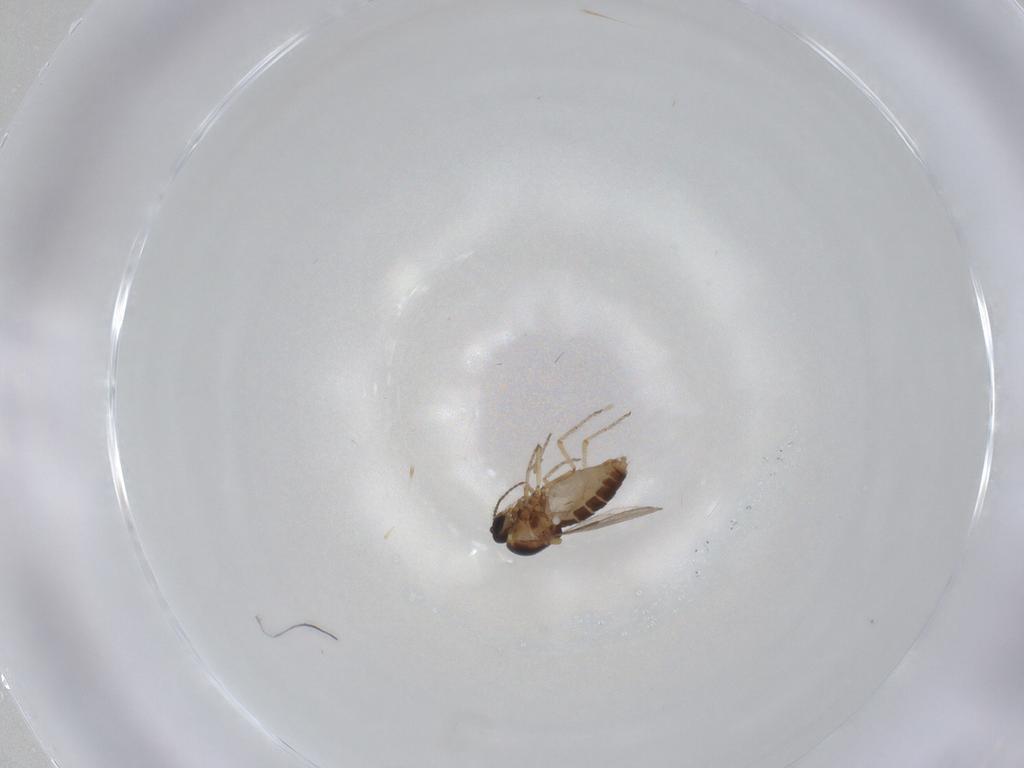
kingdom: Animalia
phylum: Arthropoda
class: Insecta
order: Diptera
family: Ceratopogonidae
